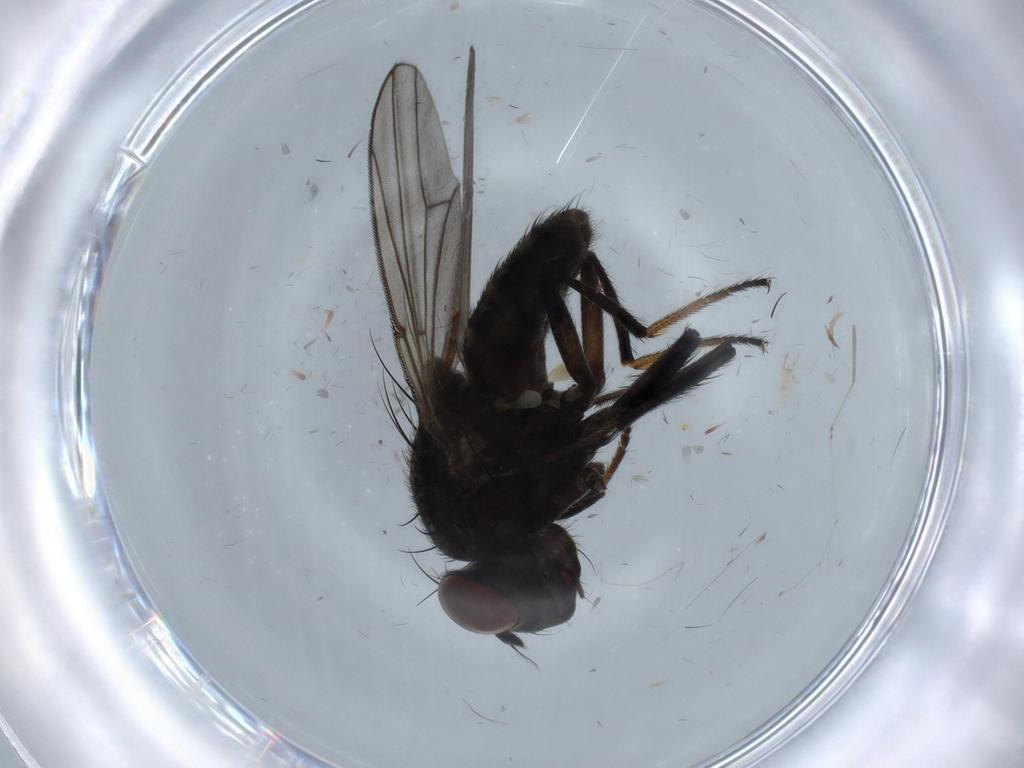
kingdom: Animalia
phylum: Arthropoda
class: Insecta
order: Diptera
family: Ephydridae
